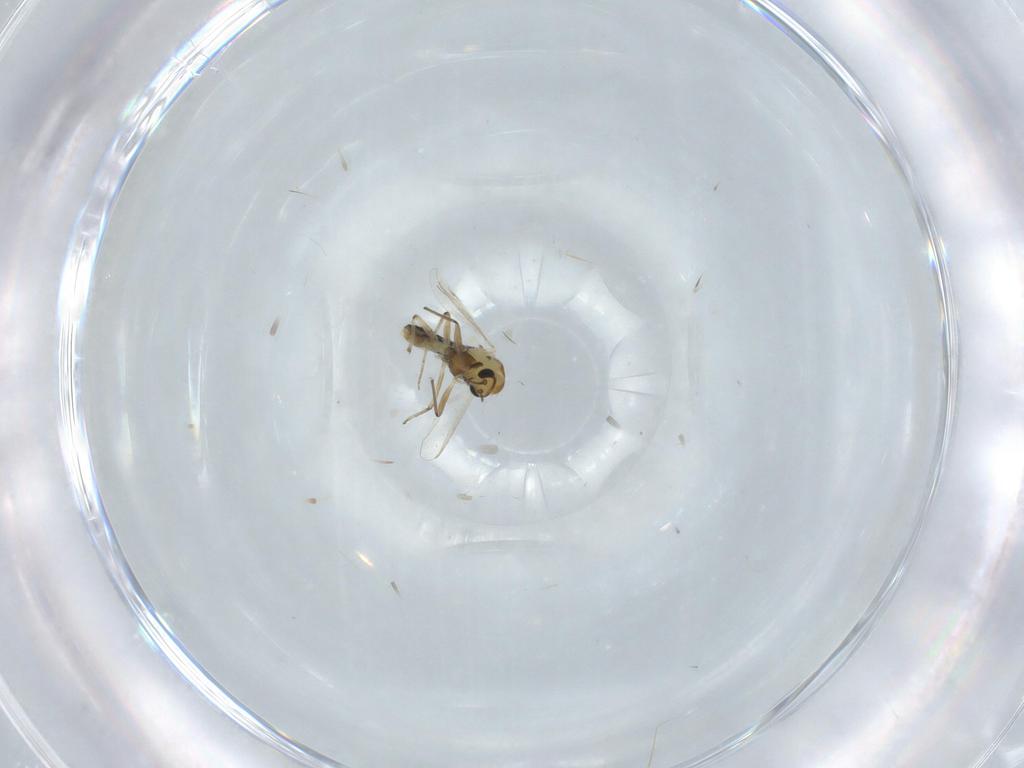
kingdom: Animalia
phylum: Arthropoda
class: Insecta
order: Diptera
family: Chironomidae
